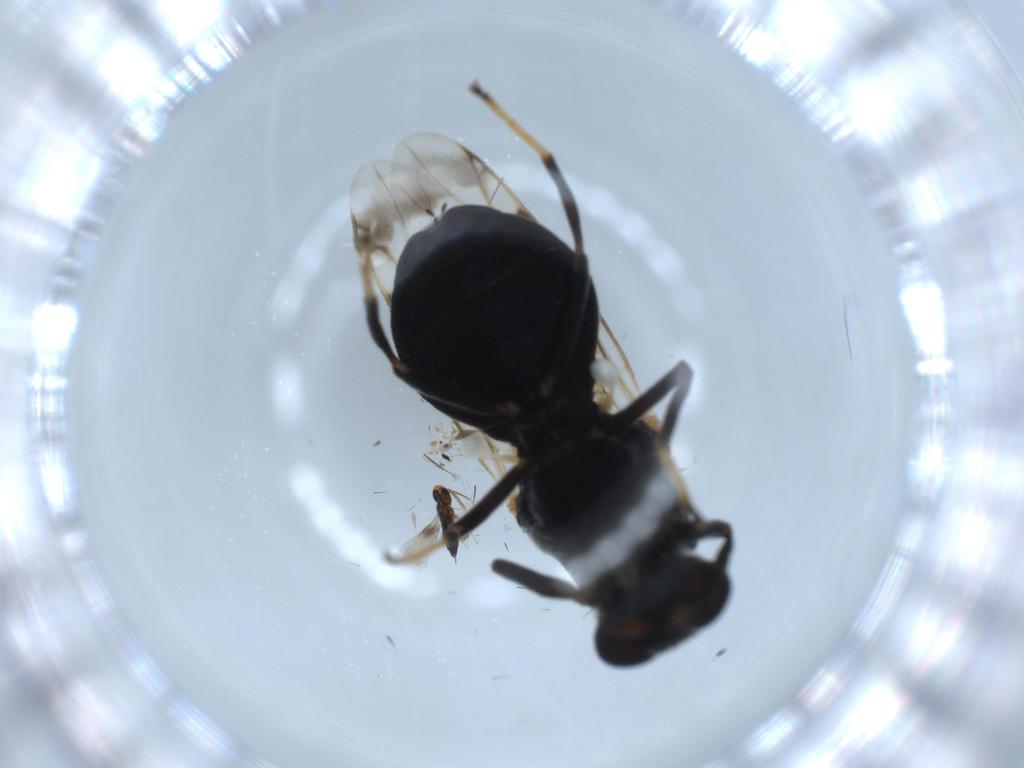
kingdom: Animalia
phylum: Arthropoda
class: Insecta
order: Diptera
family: Stratiomyidae
